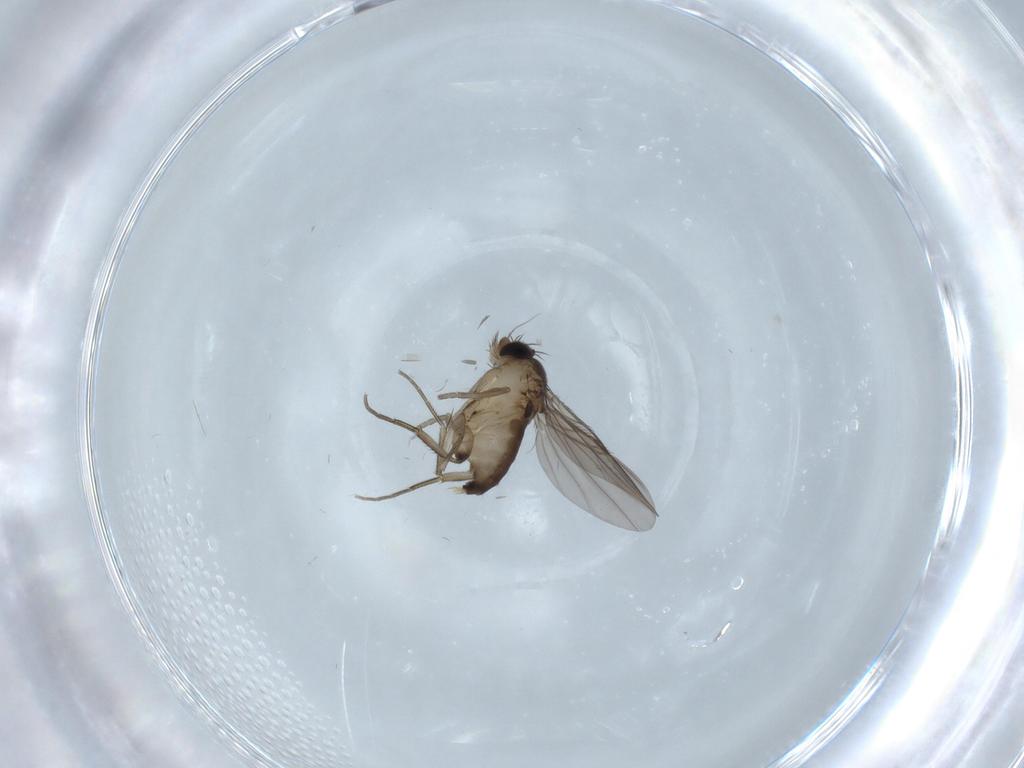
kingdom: Animalia
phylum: Arthropoda
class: Insecta
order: Diptera
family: Phoridae
